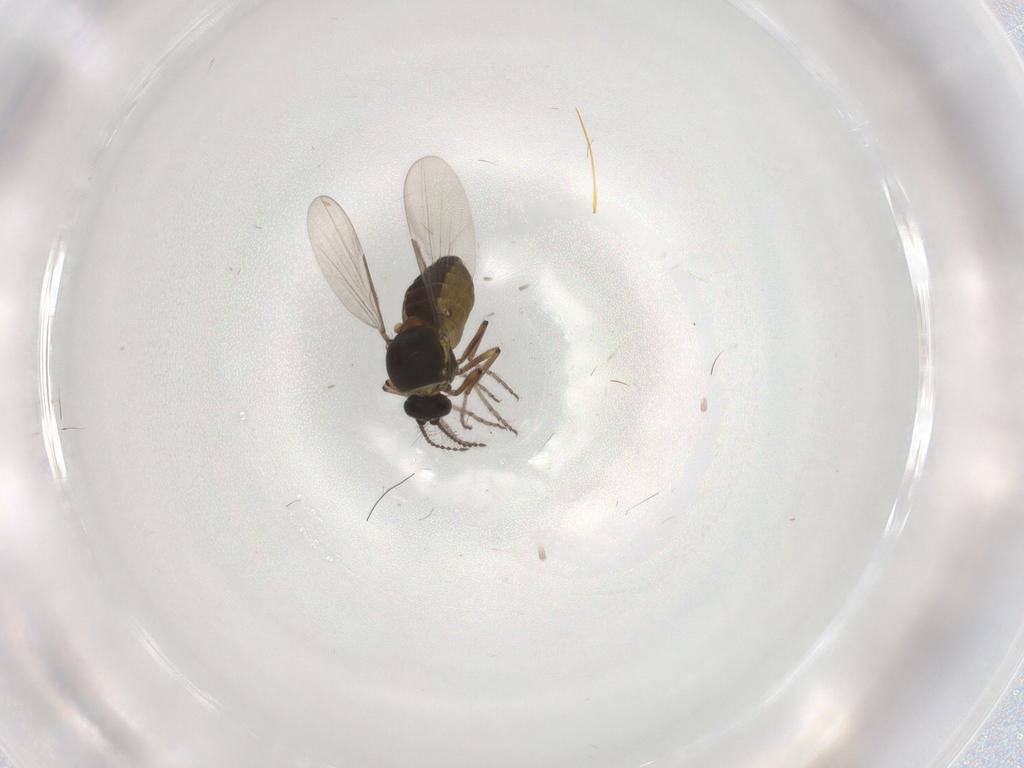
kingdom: Animalia
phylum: Arthropoda
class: Insecta
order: Diptera
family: Cecidomyiidae
